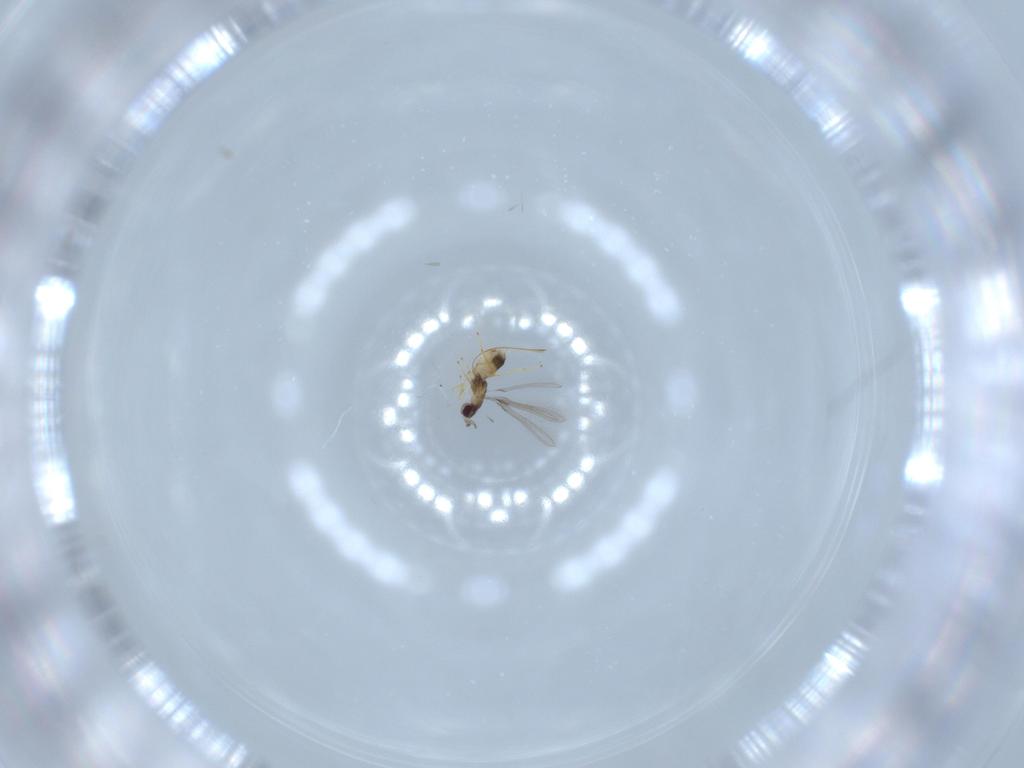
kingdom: Animalia
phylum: Arthropoda
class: Insecta
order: Hymenoptera
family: Mymaridae
